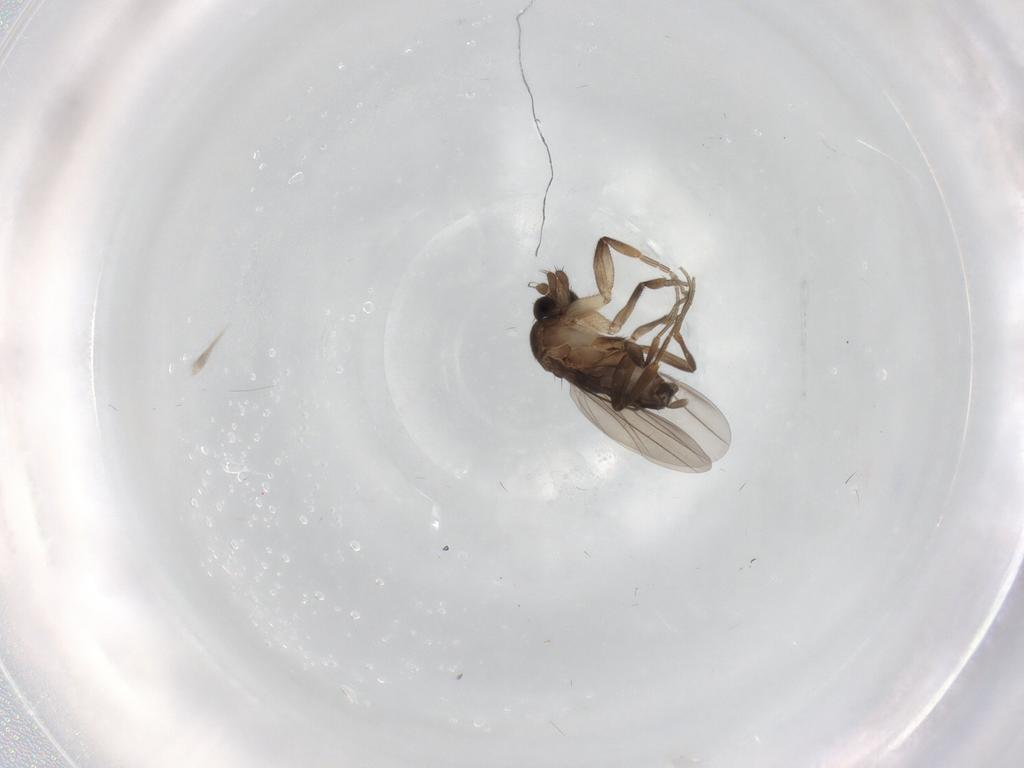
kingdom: Animalia
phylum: Arthropoda
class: Insecta
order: Diptera
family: Phoridae
